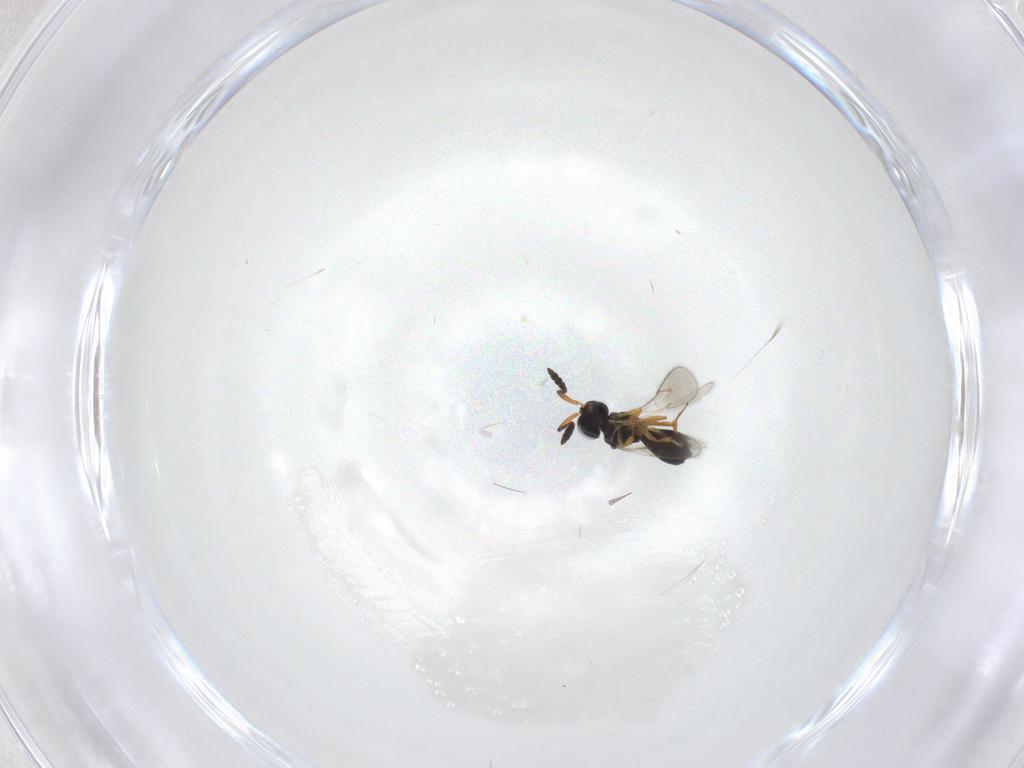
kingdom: Animalia
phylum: Arthropoda
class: Insecta
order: Hymenoptera
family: Scelionidae
